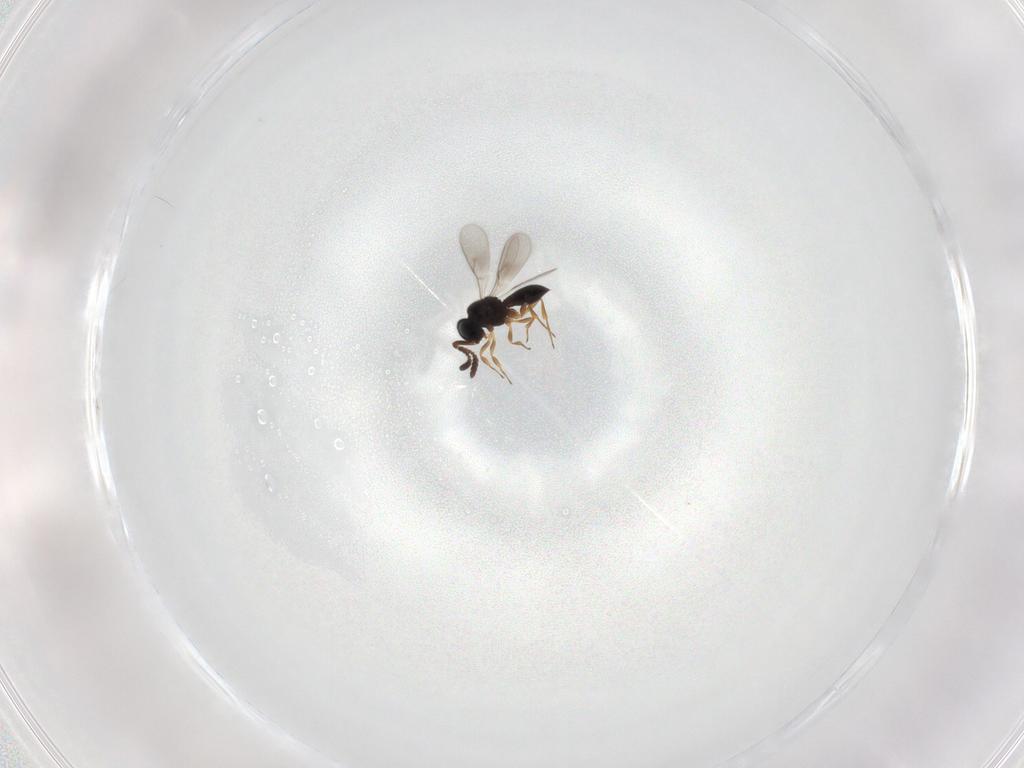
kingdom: Animalia
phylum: Arthropoda
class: Insecta
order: Hymenoptera
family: Scelionidae
